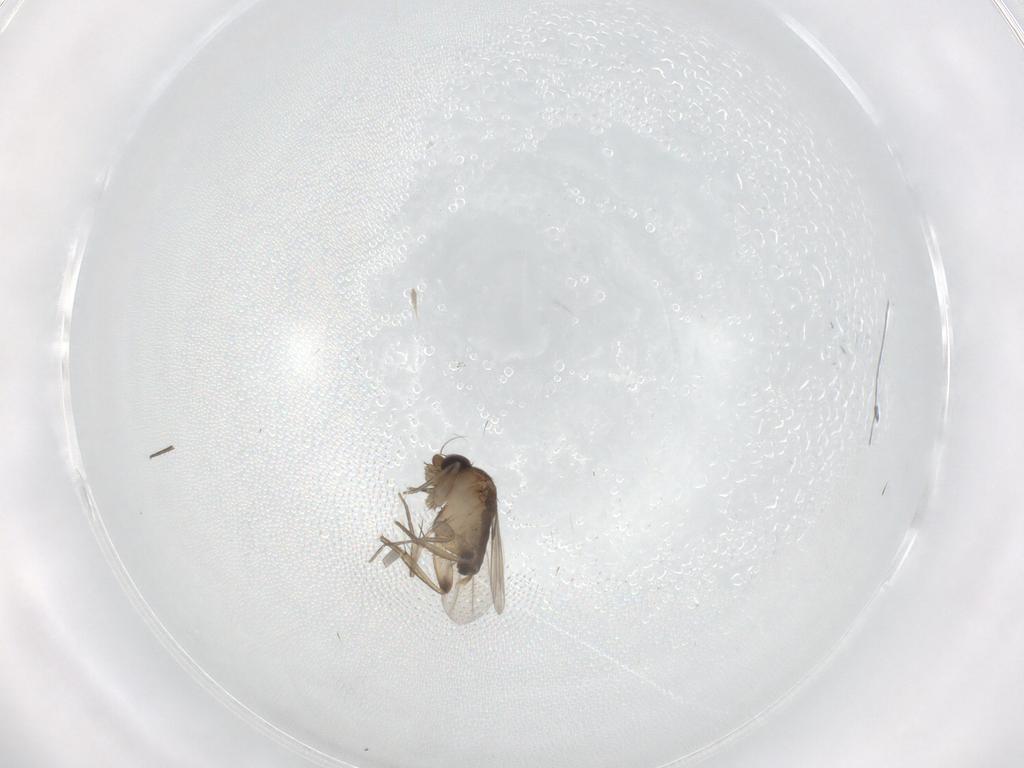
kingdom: Animalia
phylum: Arthropoda
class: Insecta
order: Diptera
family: Phoridae
